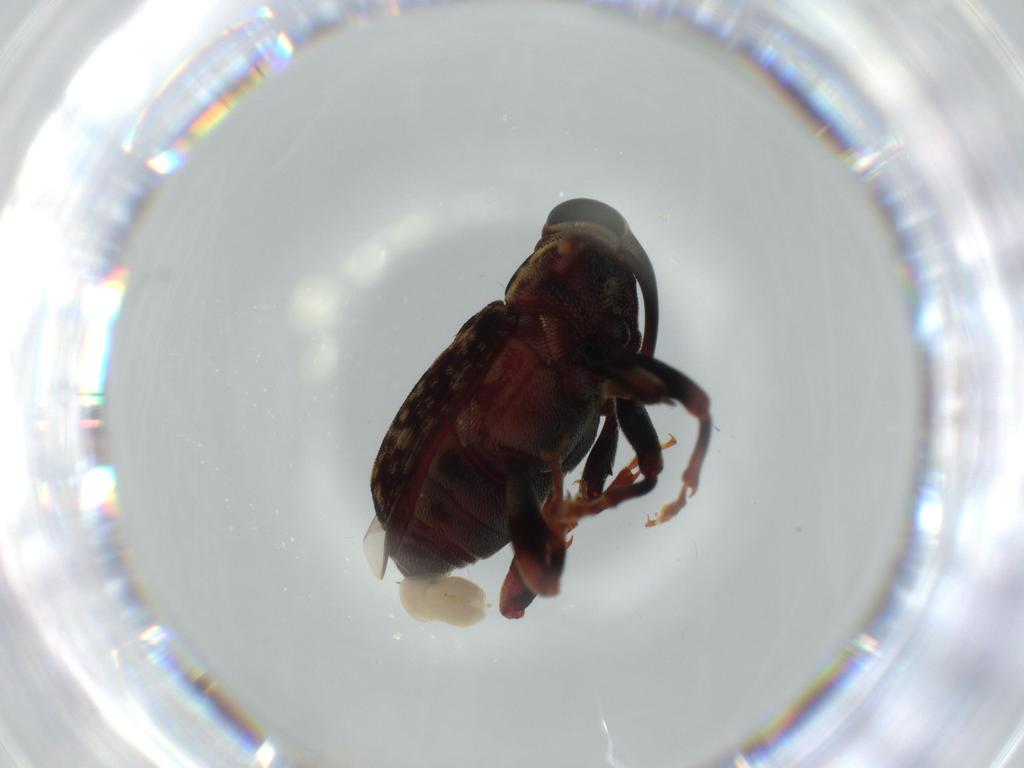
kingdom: Animalia
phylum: Arthropoda
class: Insecta
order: Coleoptera
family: Curculionidae
